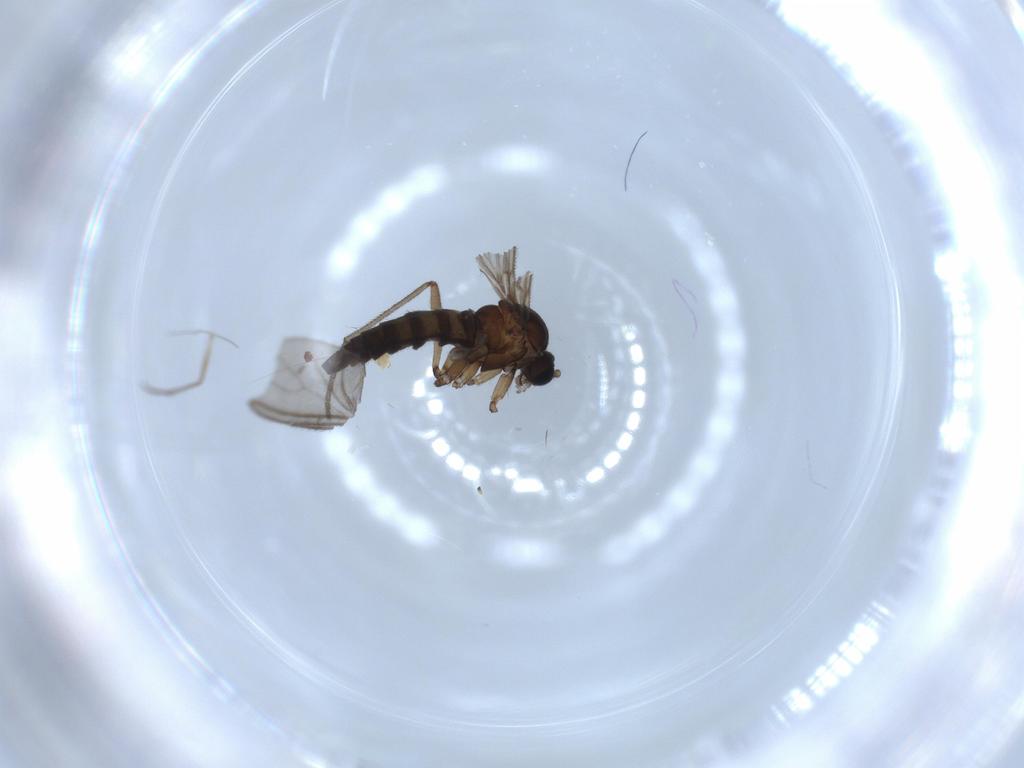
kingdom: Animalia
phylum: Arthropoda
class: Insecta
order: Diptera
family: Sciaridae
